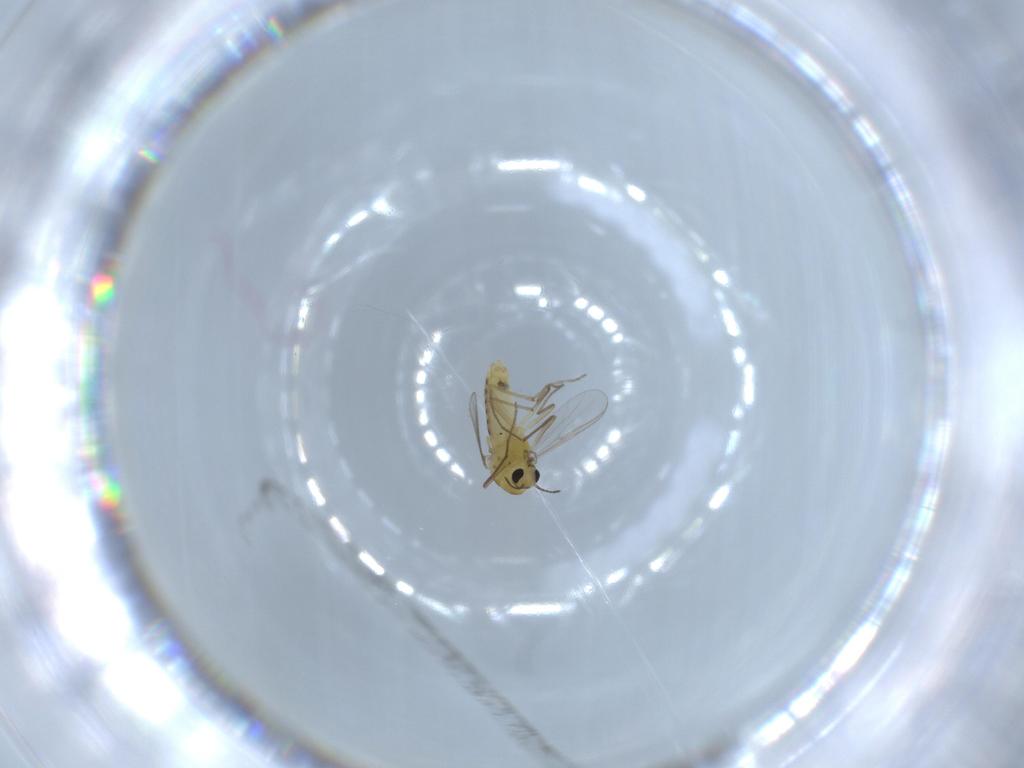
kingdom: Animalia
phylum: Arthropoda
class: Insecta
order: Diptera
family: Chironomidae
